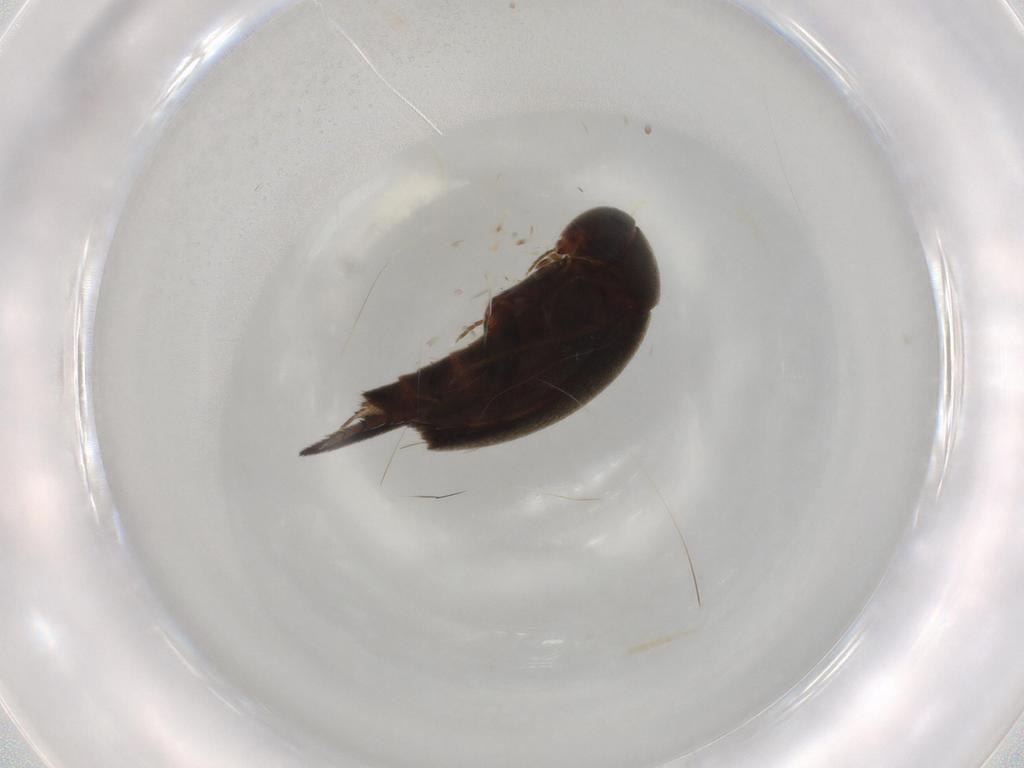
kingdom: Animalia
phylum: Arthropoda
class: Insecta
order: Coleoptera
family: Mordellidae
